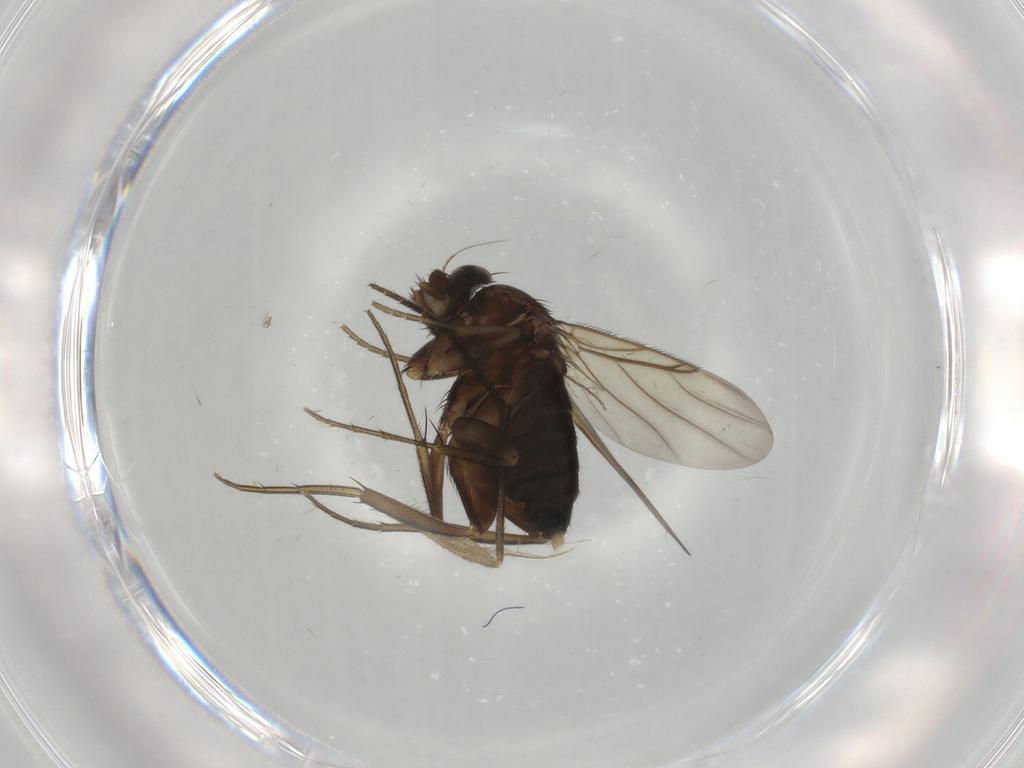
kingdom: Animalia
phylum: Arthropoda
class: Insecta
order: Diptera
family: Phoridae
